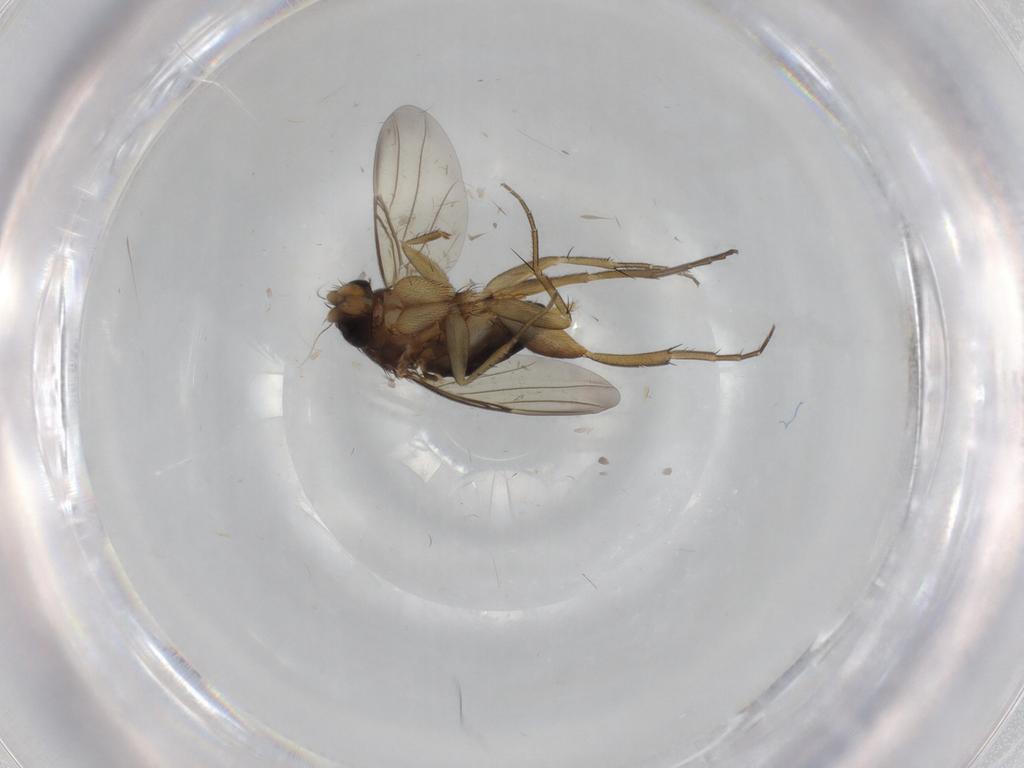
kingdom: Animalia
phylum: Arthropoda
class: Insecta
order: Diptera
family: Phoridae
